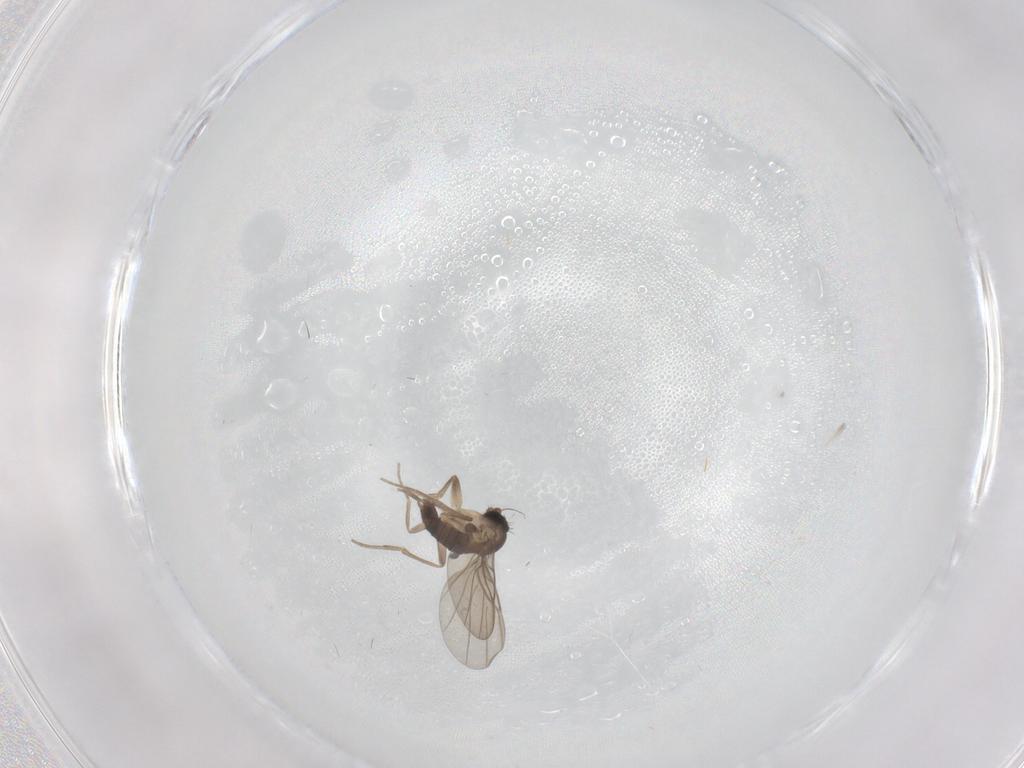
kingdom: Animalia
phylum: Arthropoda
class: Insecta
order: Diptera
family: Phoridae
